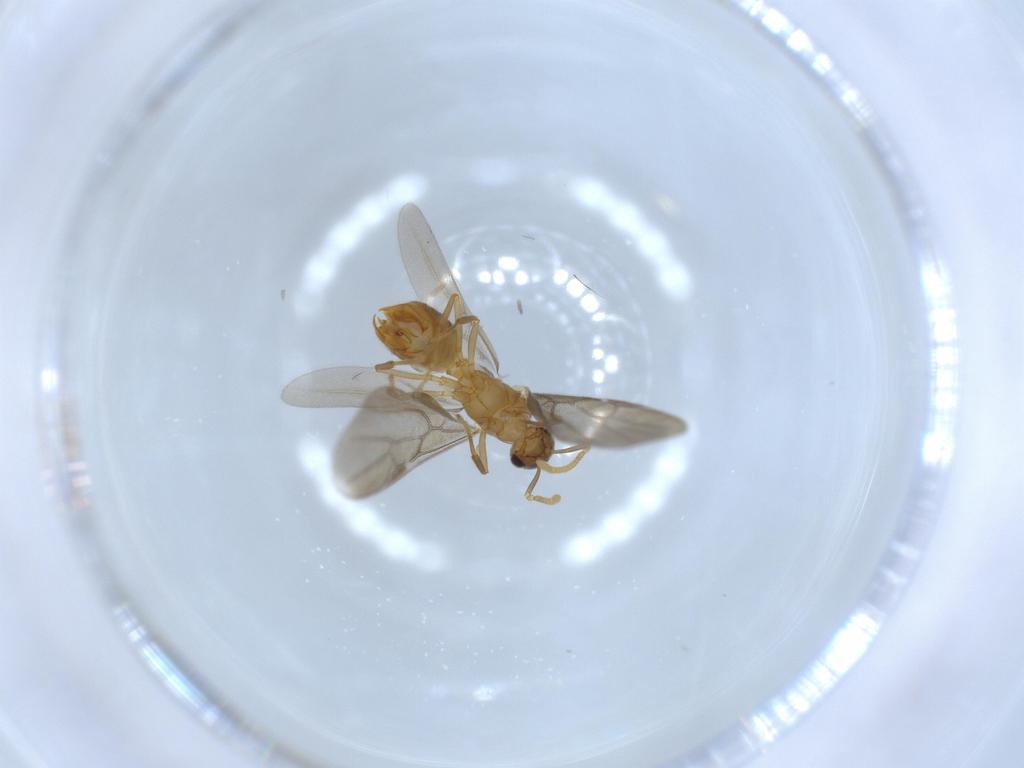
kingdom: Animalia
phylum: Arthropoda
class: Insecta
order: Hymenoptera
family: Formicidae
